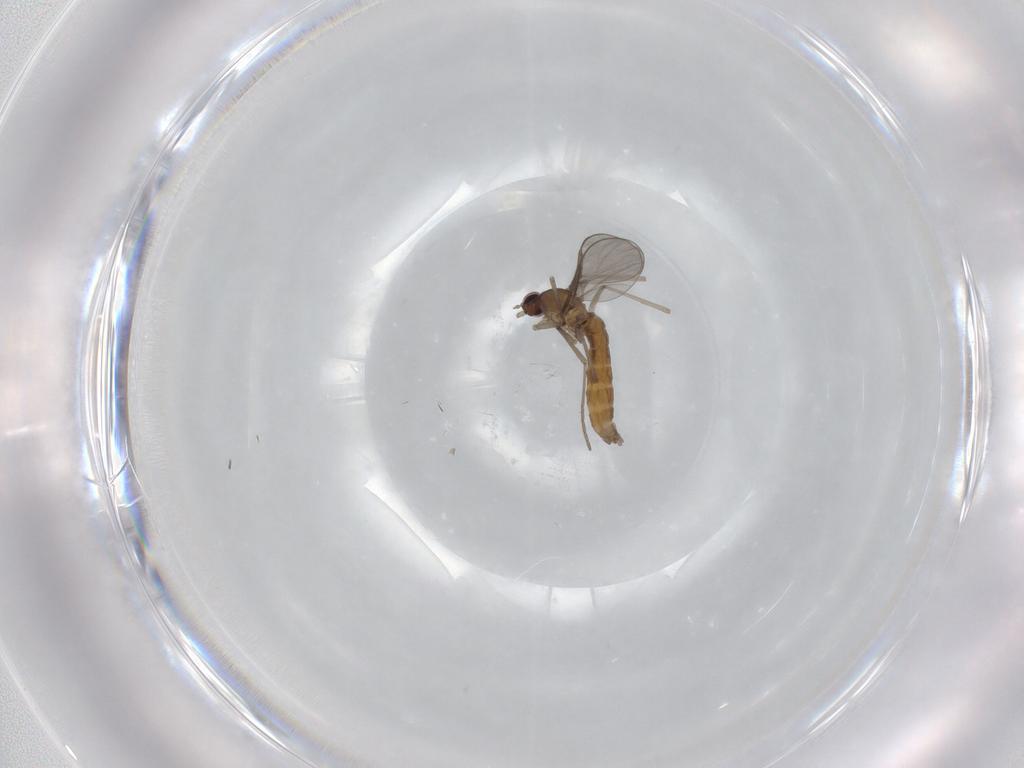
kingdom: Animalia
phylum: Arthropoda
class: Insecta
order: Diptera
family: Cecidomyiidae
